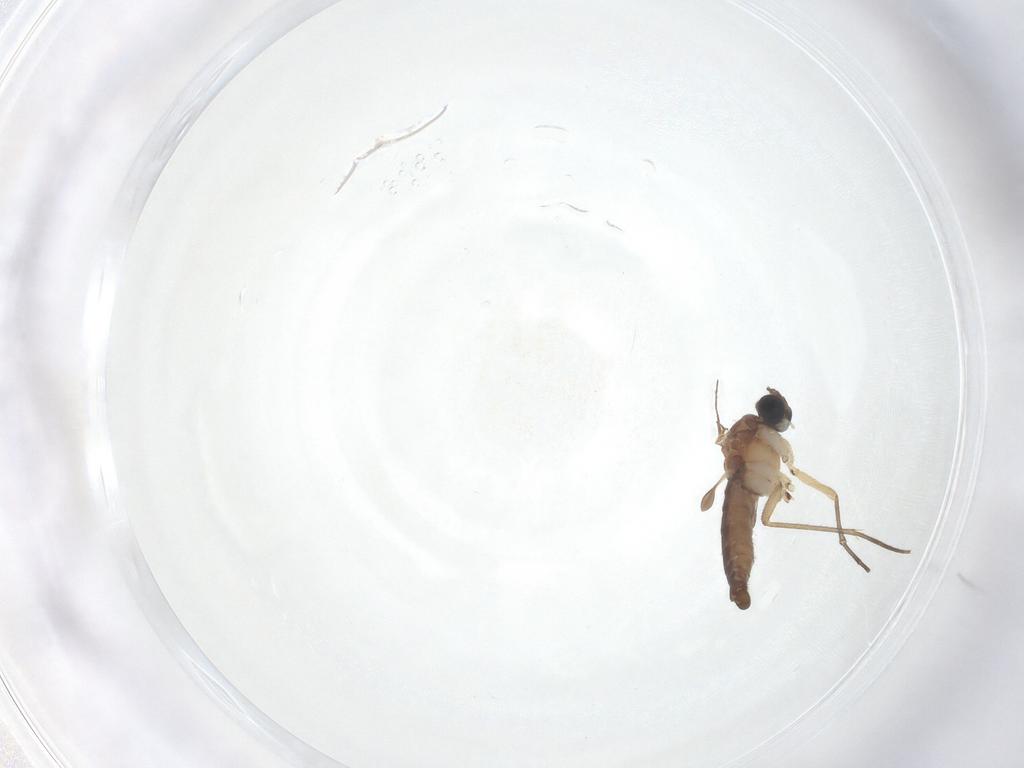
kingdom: Animalia
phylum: Arthropoda
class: Insecta
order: Diptera
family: Sciaridae
